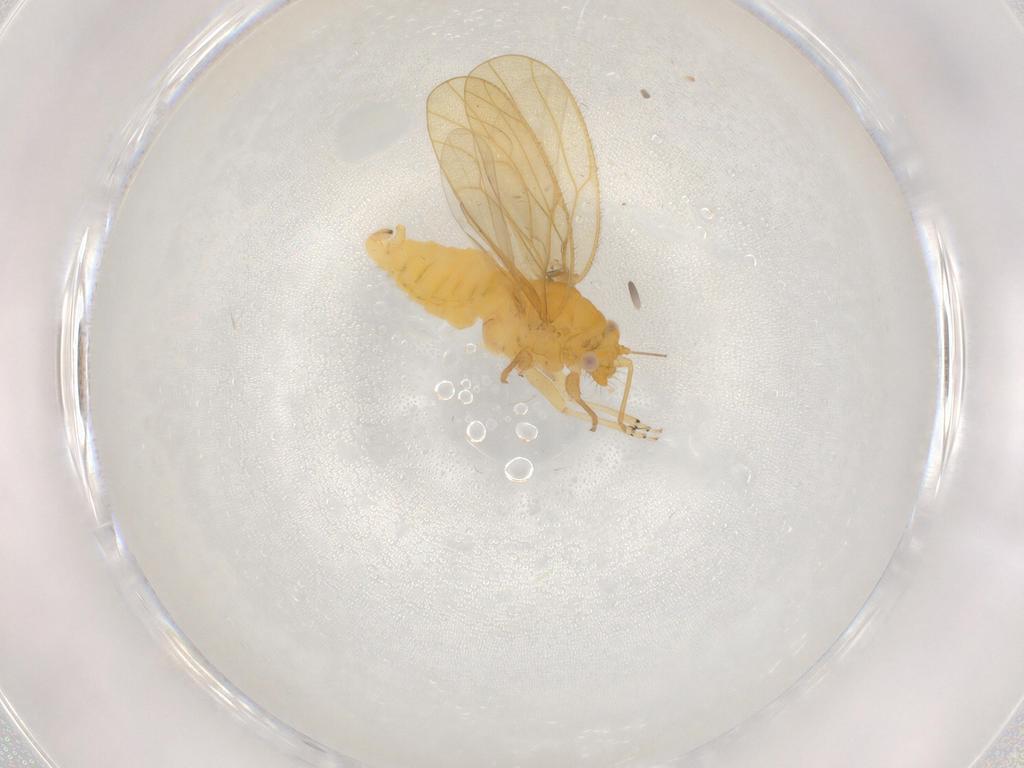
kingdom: Animalia
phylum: Arthropoda
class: Insecta
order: Hemiptera
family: Psyllidae
